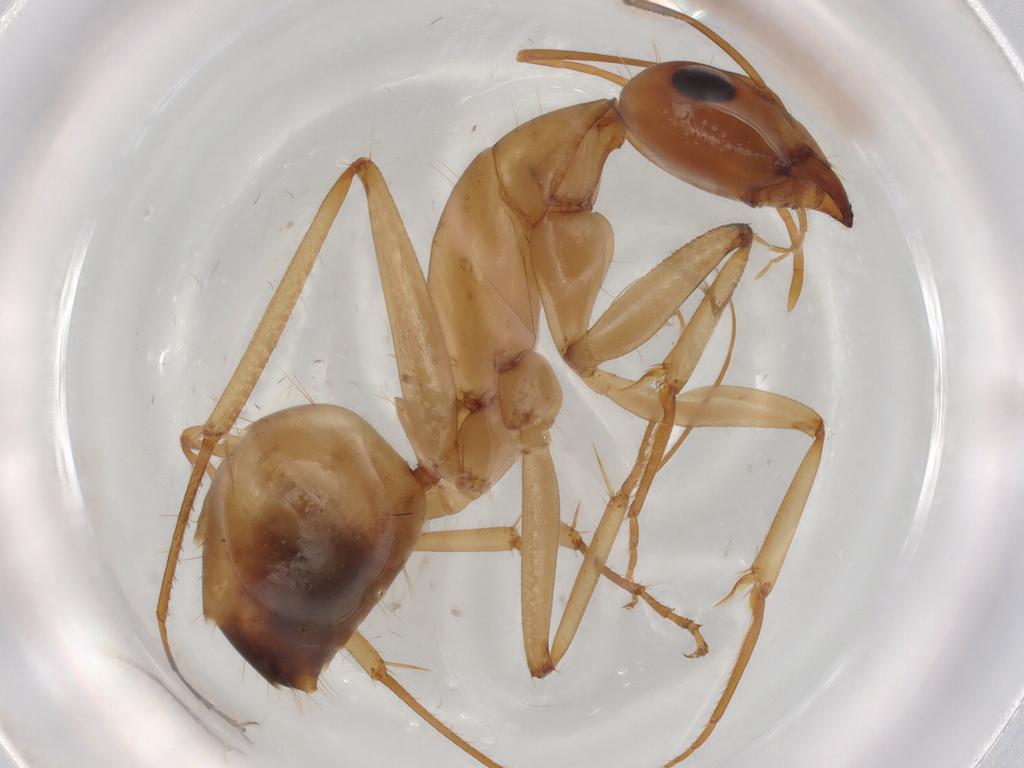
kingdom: Animalia
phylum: Arthropoda
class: Insecta
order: Hymenoptera
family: Formicidae
